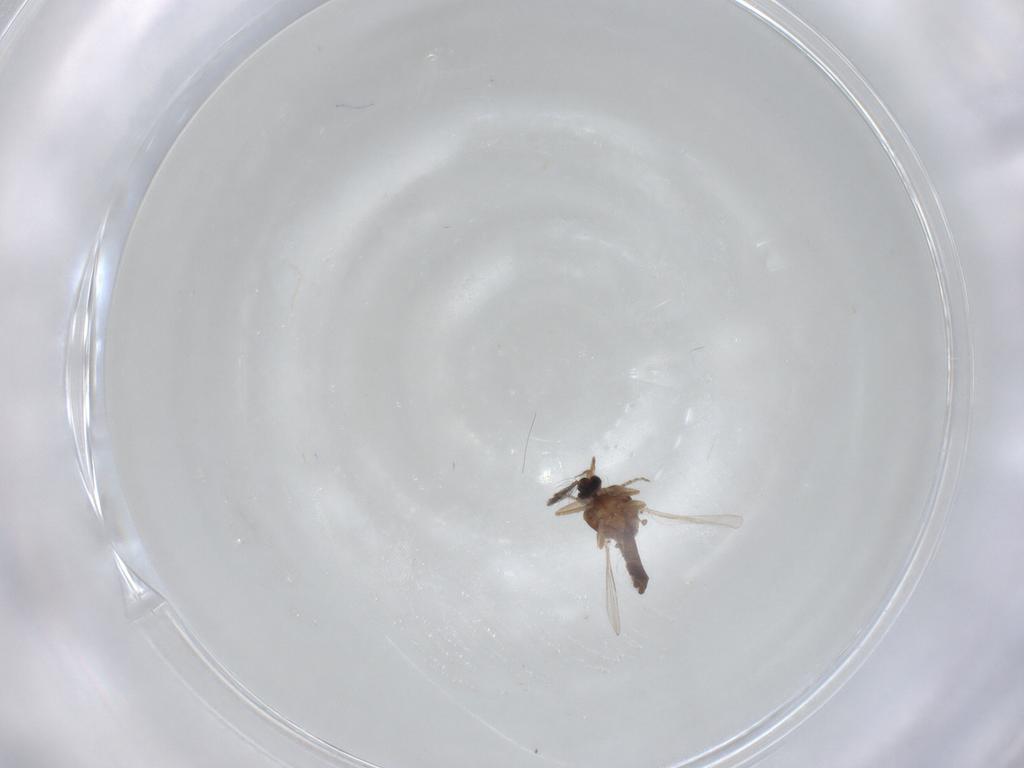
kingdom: Animalia
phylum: Arthropoda
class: Insecta
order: Diptera
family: Ceratopogonidae
